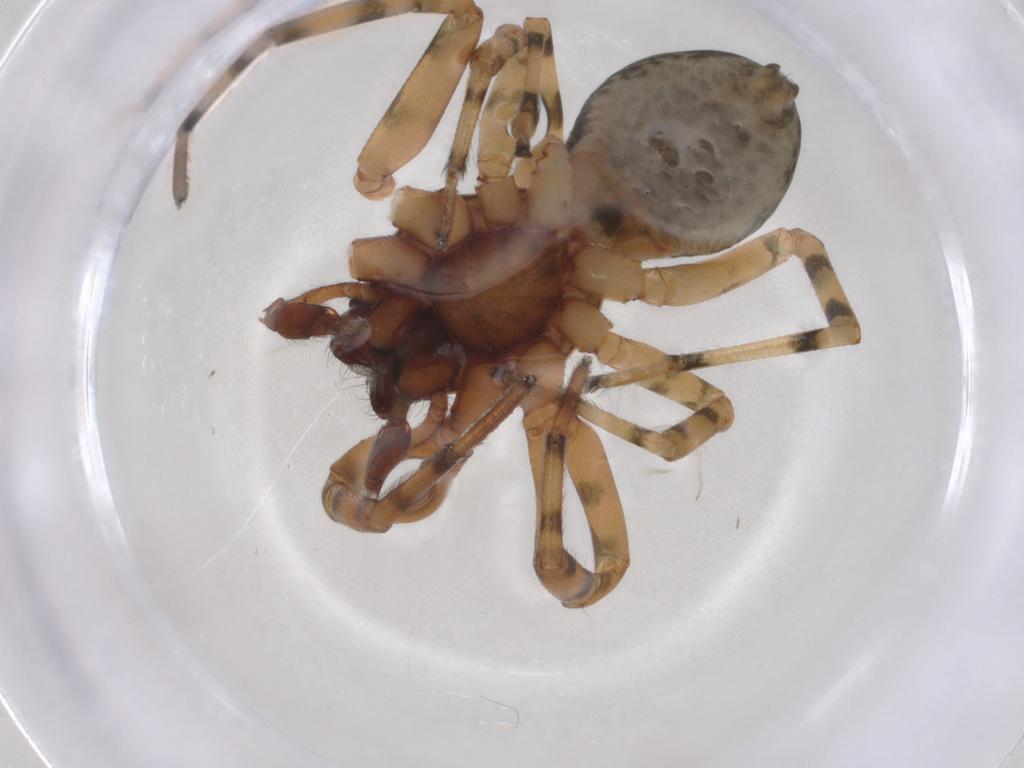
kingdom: Animalia
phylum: Arthropoda
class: Arachnida
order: Araneae
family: Trachelidae
